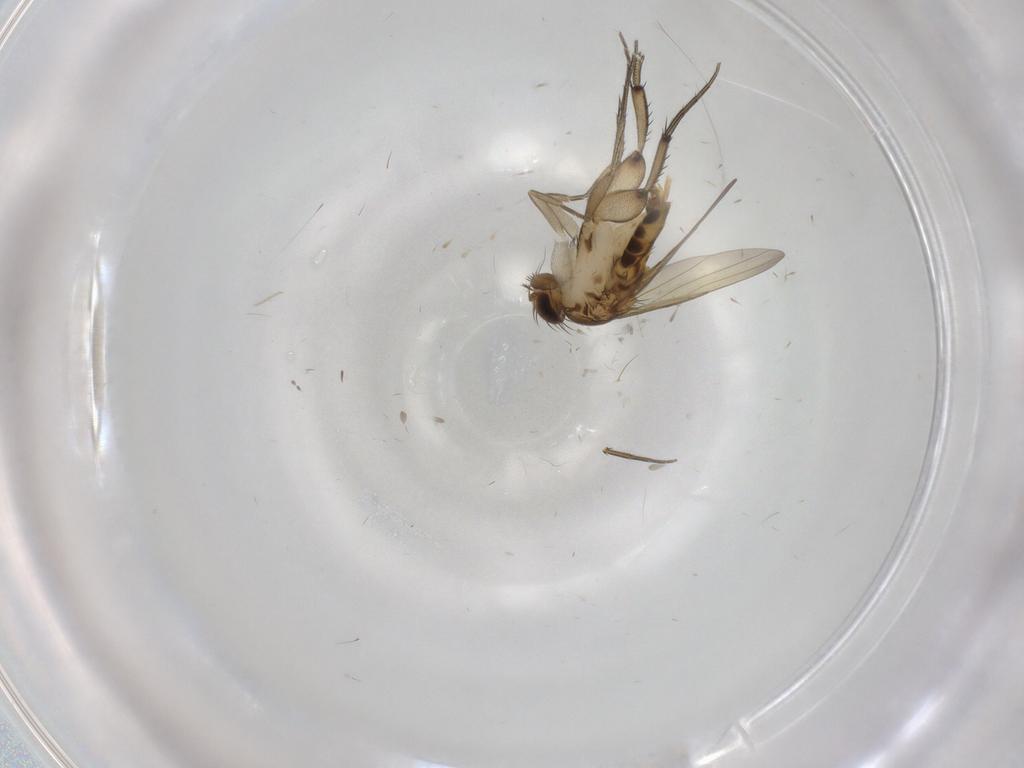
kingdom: Animalia
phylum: Arthropoda
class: Insecta
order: Diptera
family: Phoridae
